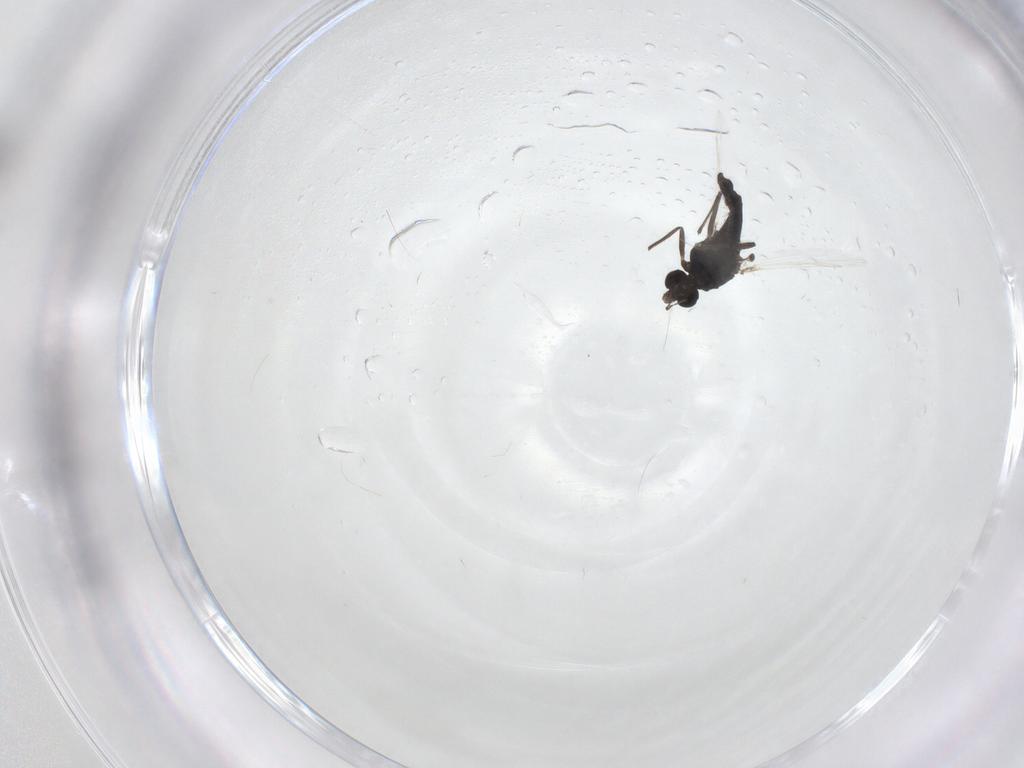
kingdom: Animalia
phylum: Arthropoda
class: Insecta
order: Diptera
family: Chironomidae
